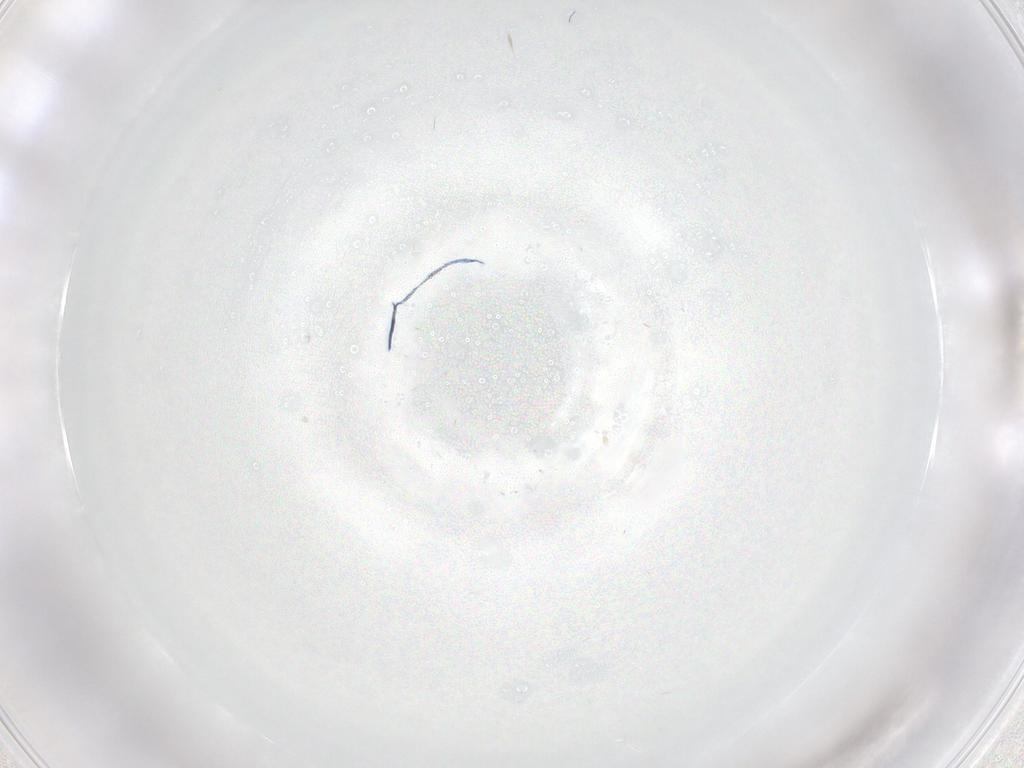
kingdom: Animalia
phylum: Arthropoda
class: Insecta
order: Diptera
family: Cecidomyiidae
